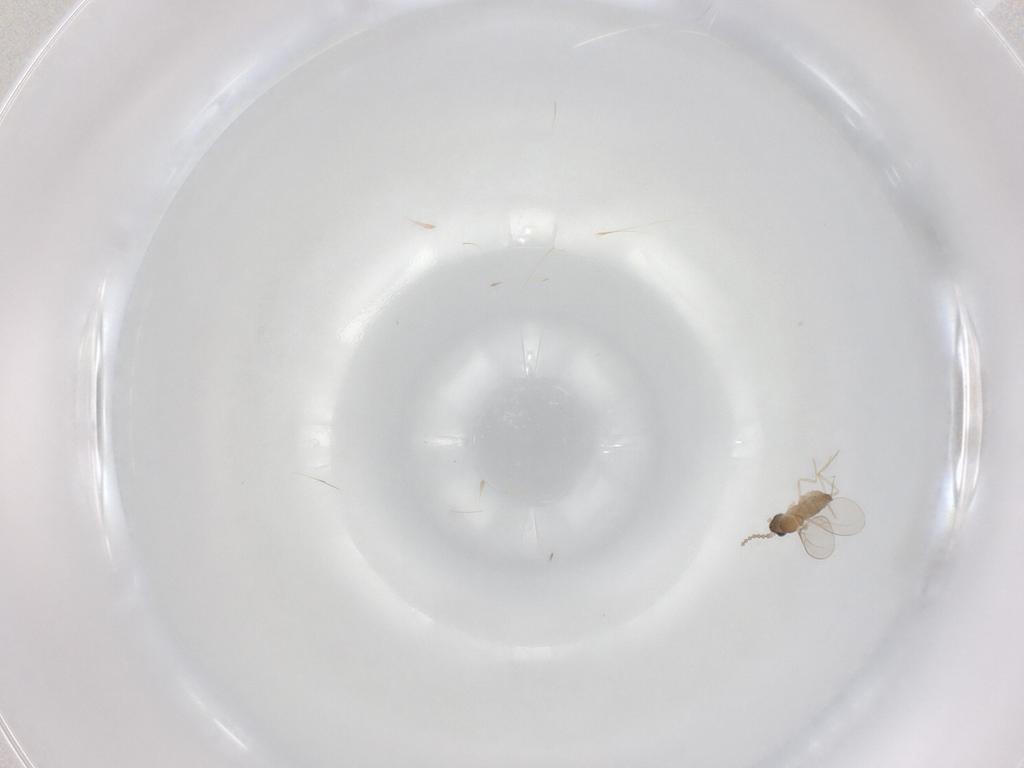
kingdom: Animalia
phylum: Arthropoda
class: Insecta
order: Diptera
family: Cecidomyiidae
